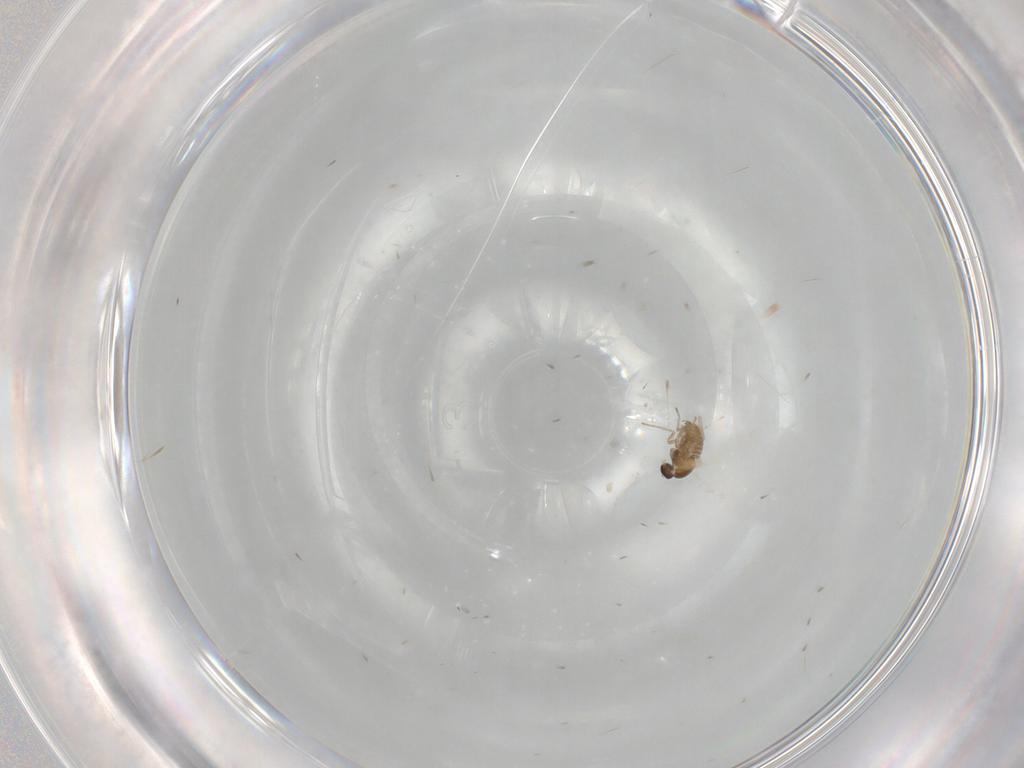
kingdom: Animalia
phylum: Arthropoda
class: Insecta
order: Diptera
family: Cecidomyiidae
